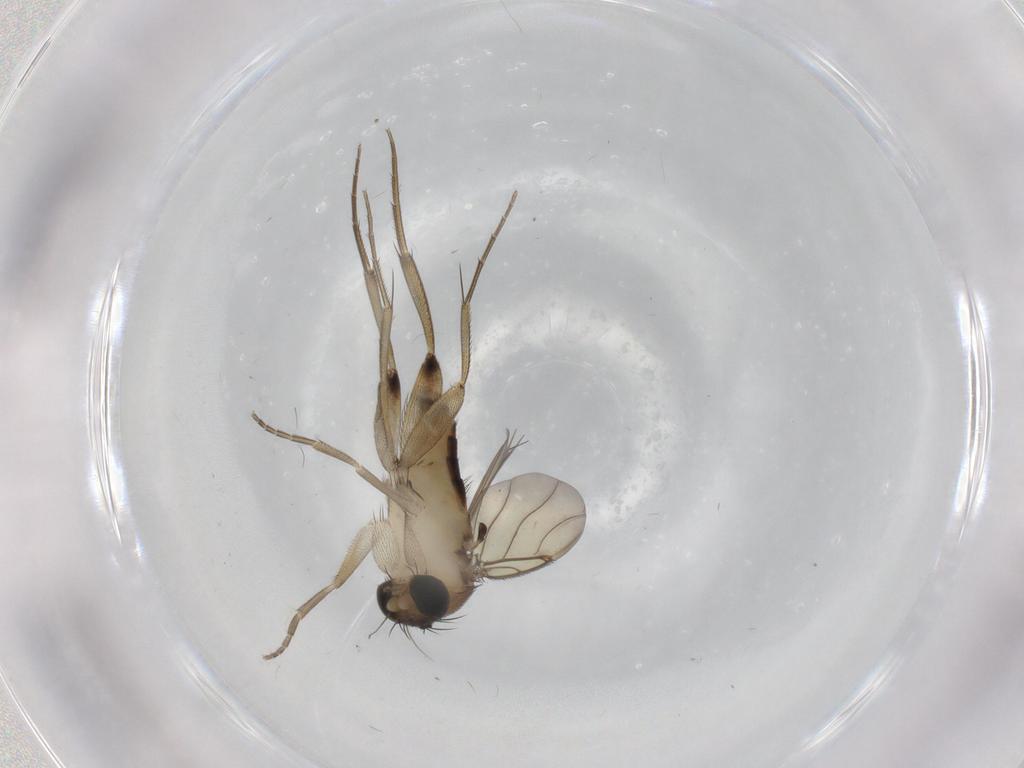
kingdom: Animalia
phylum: Arthropoda
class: Insecta
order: Diptera
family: Phoridae
